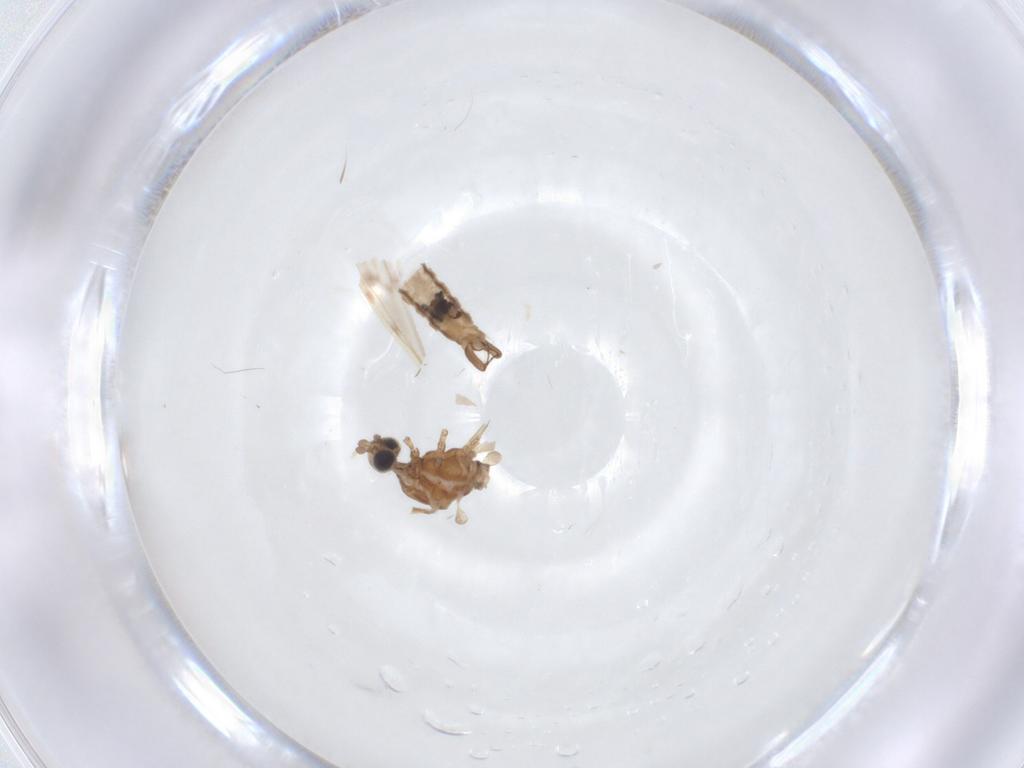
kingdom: Animalia
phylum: Arthropoda
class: Insecta
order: Diptera
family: Limoniidae
